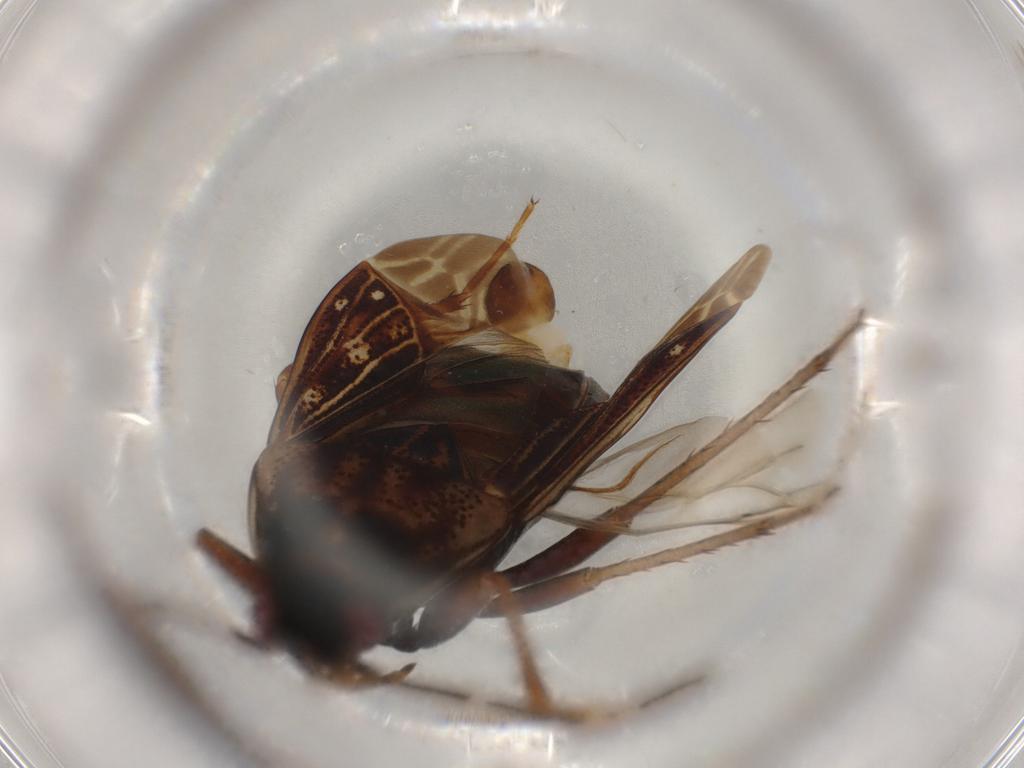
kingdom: Animalia
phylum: Arthropoda
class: Insecta
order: Hemiptera
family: Rhyparochromidae
